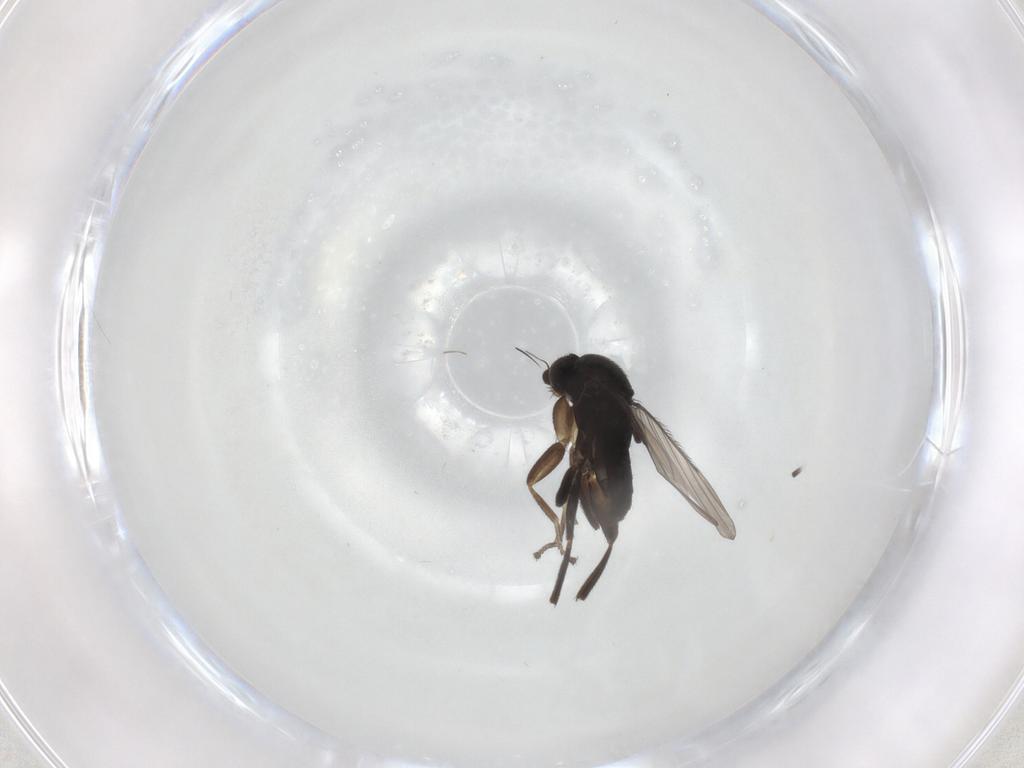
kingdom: Animalia
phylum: Arthropoda
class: Insecta
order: Diptera
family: Phoridae
